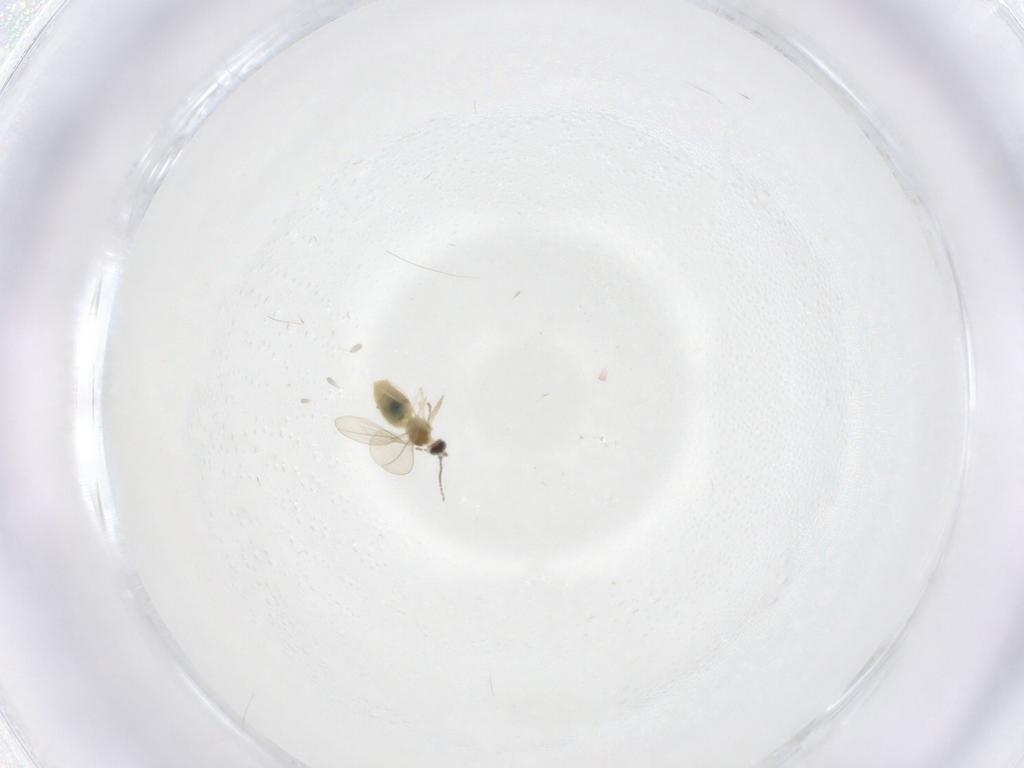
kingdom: Animalia
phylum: Arthropoda
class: Insecta
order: Diptera
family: Cecidomyiidae
